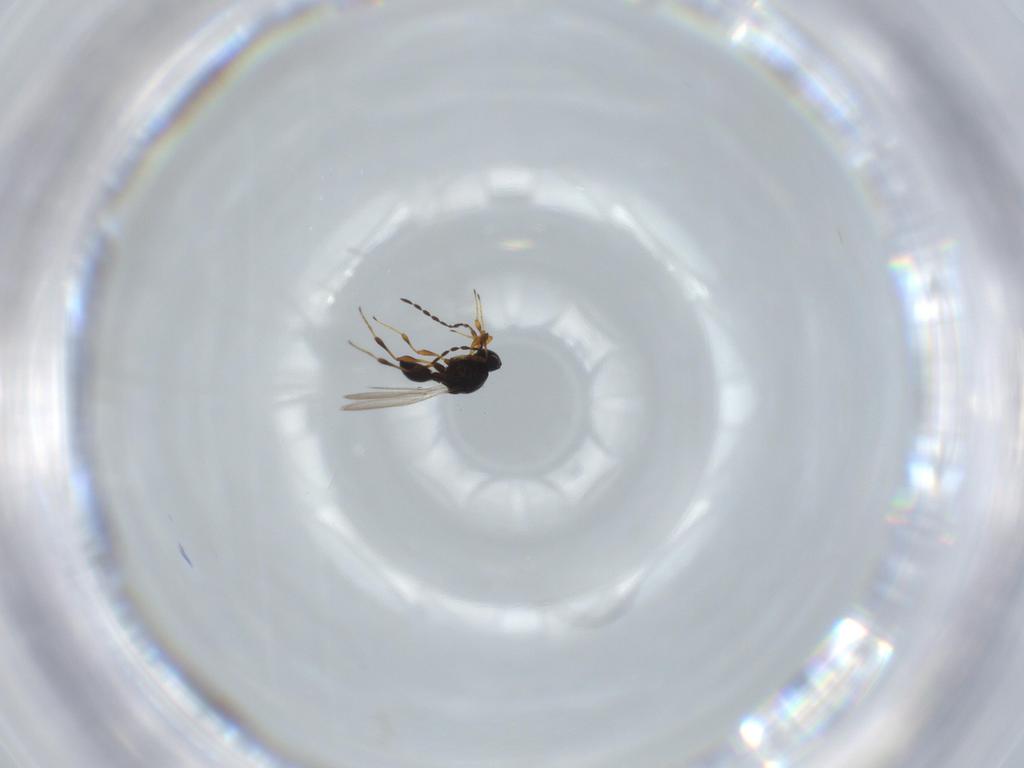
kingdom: Animalia
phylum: Arthropoda
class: Insecta
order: Hymenoptera
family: Platygastridae
